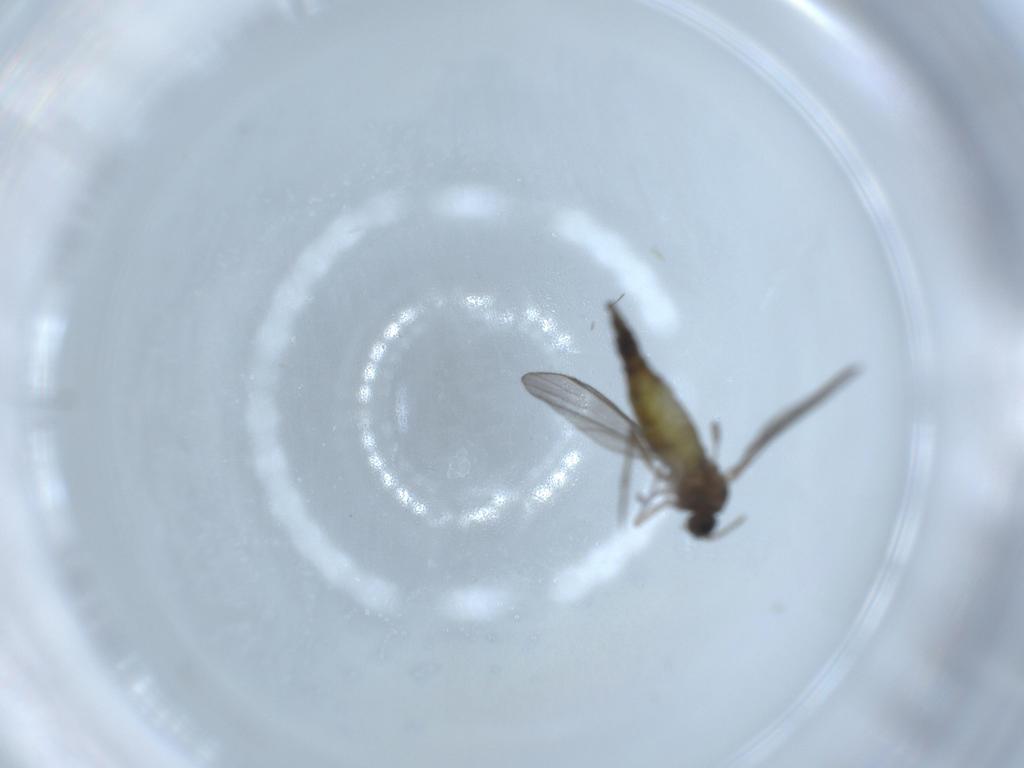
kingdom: Animalia
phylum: Arthropoda
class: Insecta
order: Diptera
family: Sciaridae
